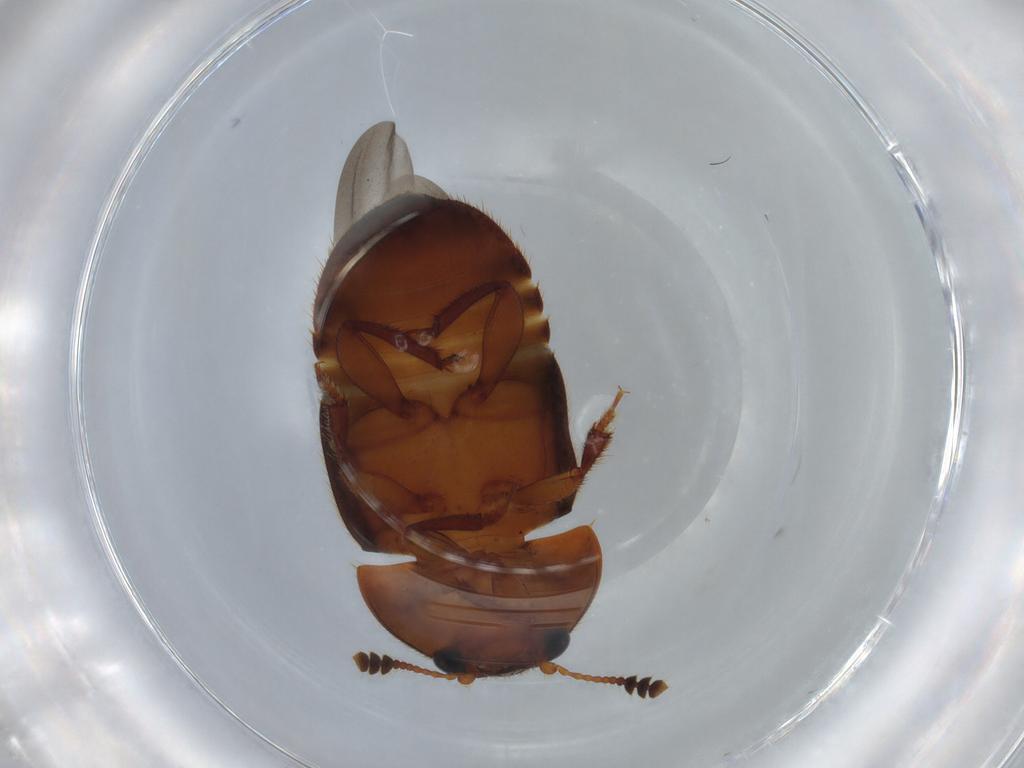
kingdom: Animalia
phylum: Arthropoda
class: Insecta
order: Coleoptera
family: Nitidulidae
